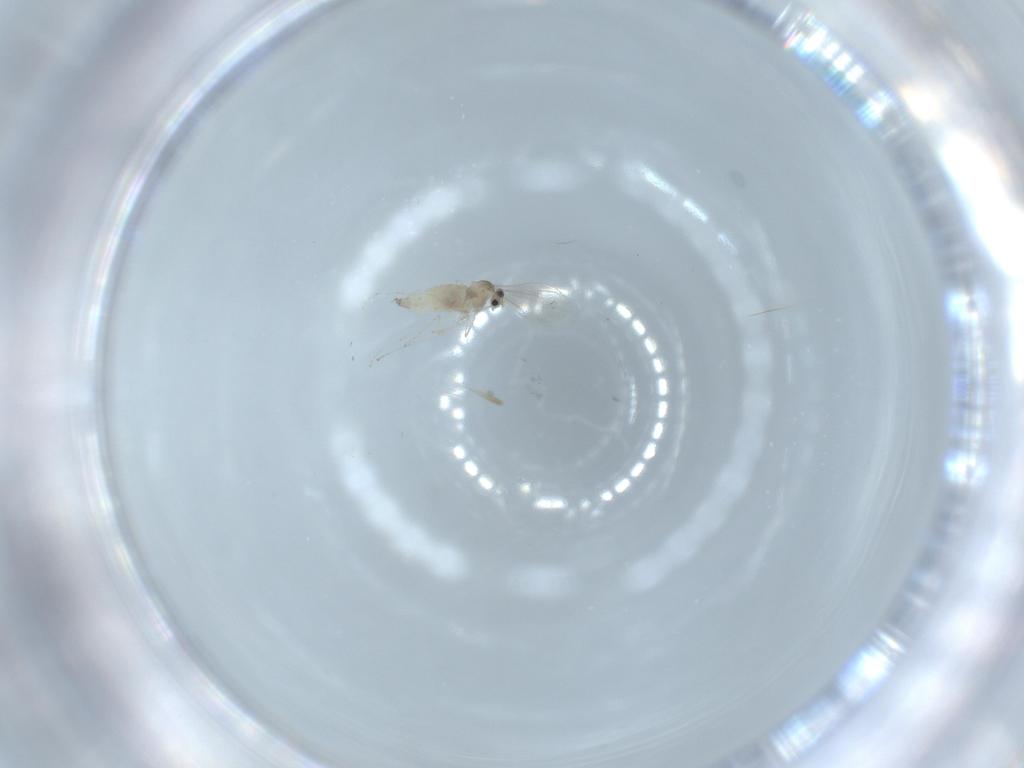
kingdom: Animalia
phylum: Arthropoda
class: Insecta
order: Diptera
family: Cecidomyiidae
